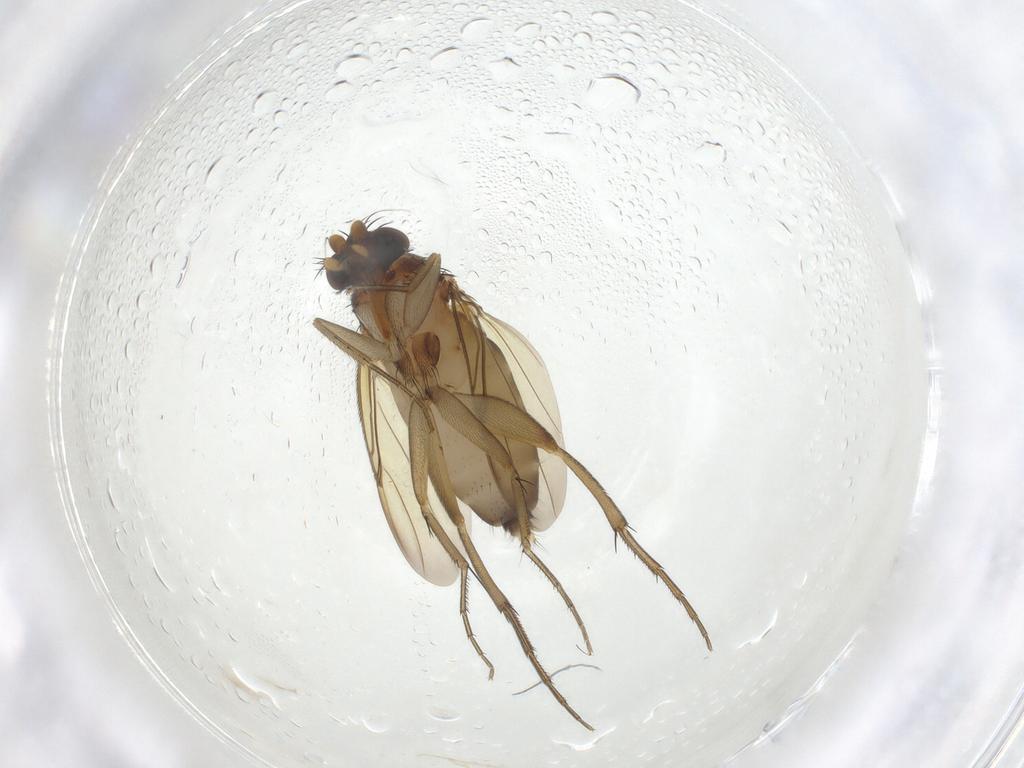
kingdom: Animalia
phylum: Arthropoda
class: Insecta
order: Diptera
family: Phoridae
